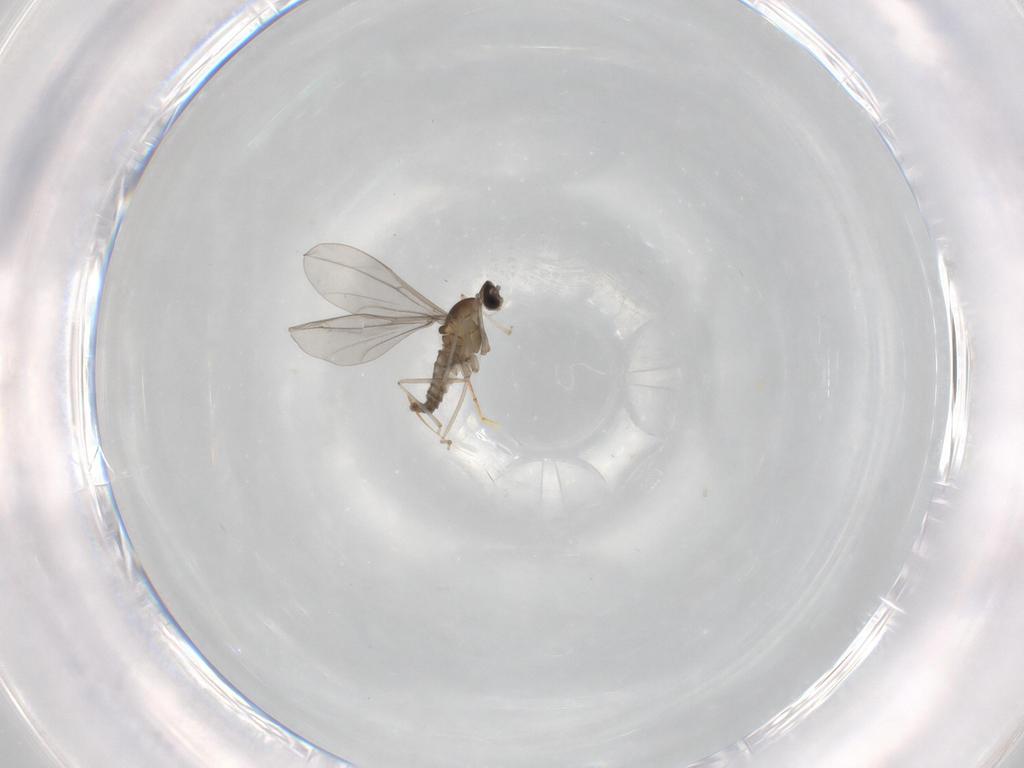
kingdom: Animalia
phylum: Arthropoda
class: Insecta
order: Diptera
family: Cecidomyiidae
